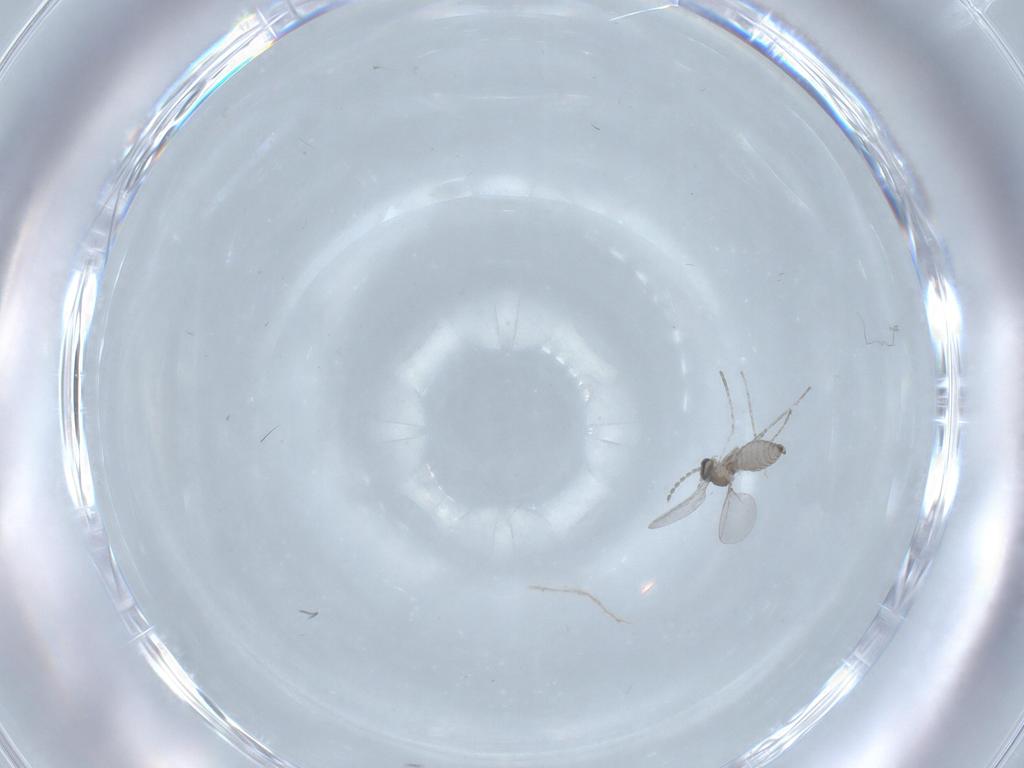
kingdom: Animalia
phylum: Arthropoda
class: Insecta
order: Diptera
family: Cecidomyiidae
